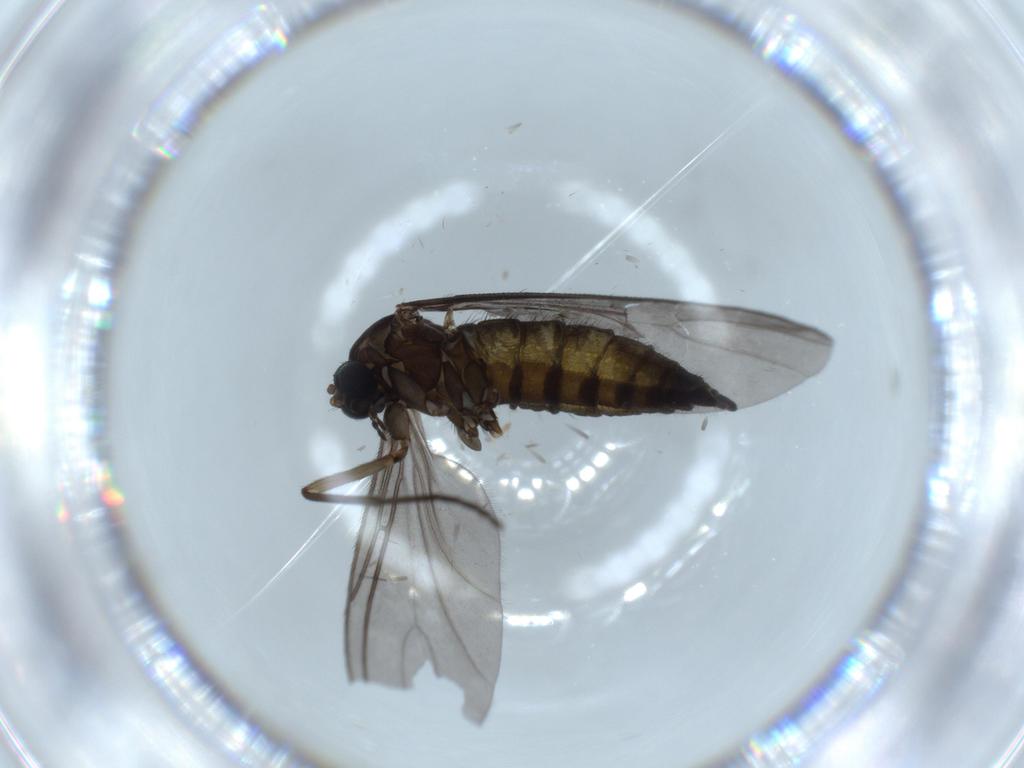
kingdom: Animalia
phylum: Arthropoda
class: Insecta
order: Diptera
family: Sciaridae
